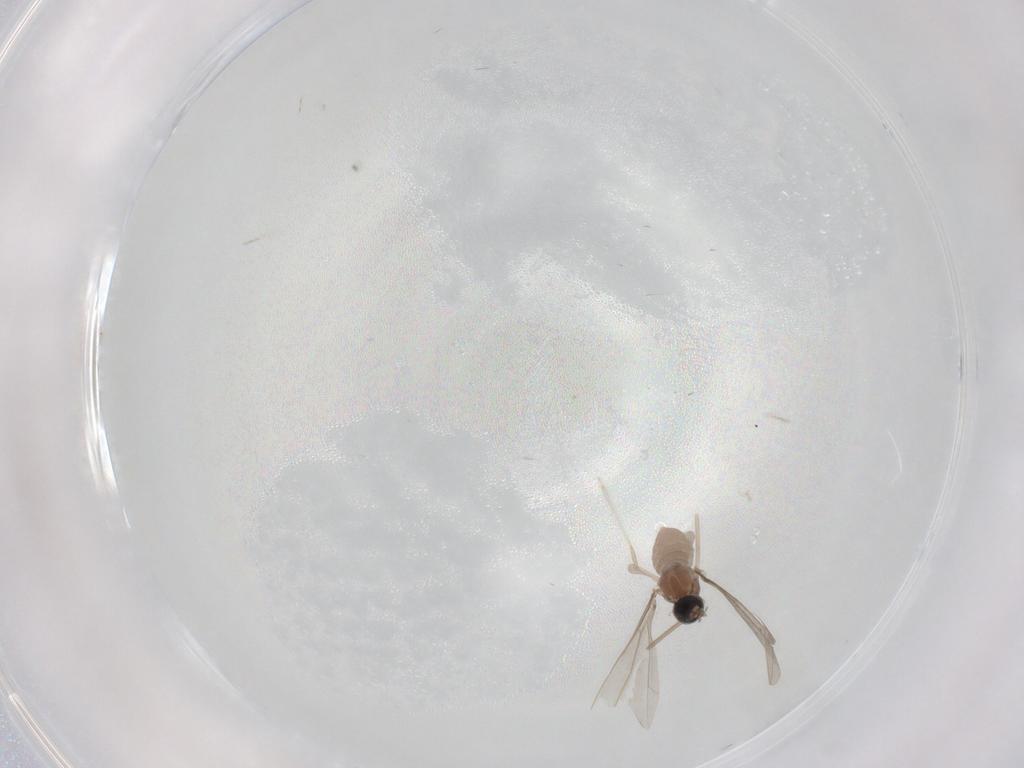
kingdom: Animalia
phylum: Arthropoda
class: Insecta
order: Diptera
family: Cecidomyiidae
